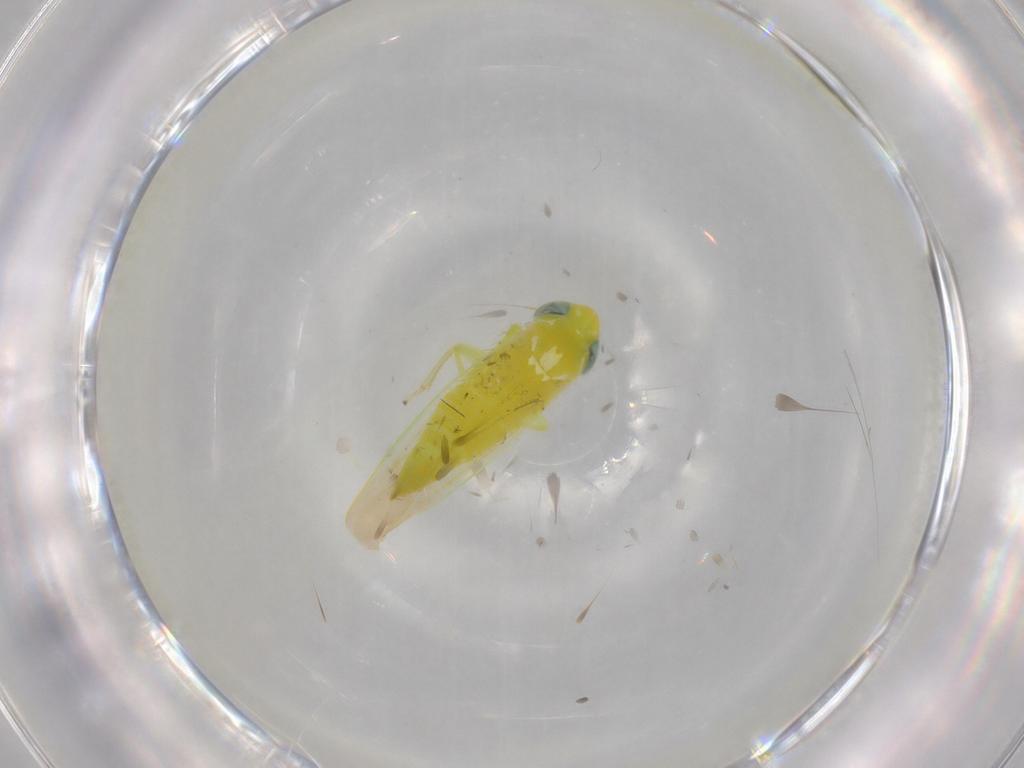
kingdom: Animalia
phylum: Arthropoda
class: Insecta
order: Hemiptera
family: Cicadellidae
